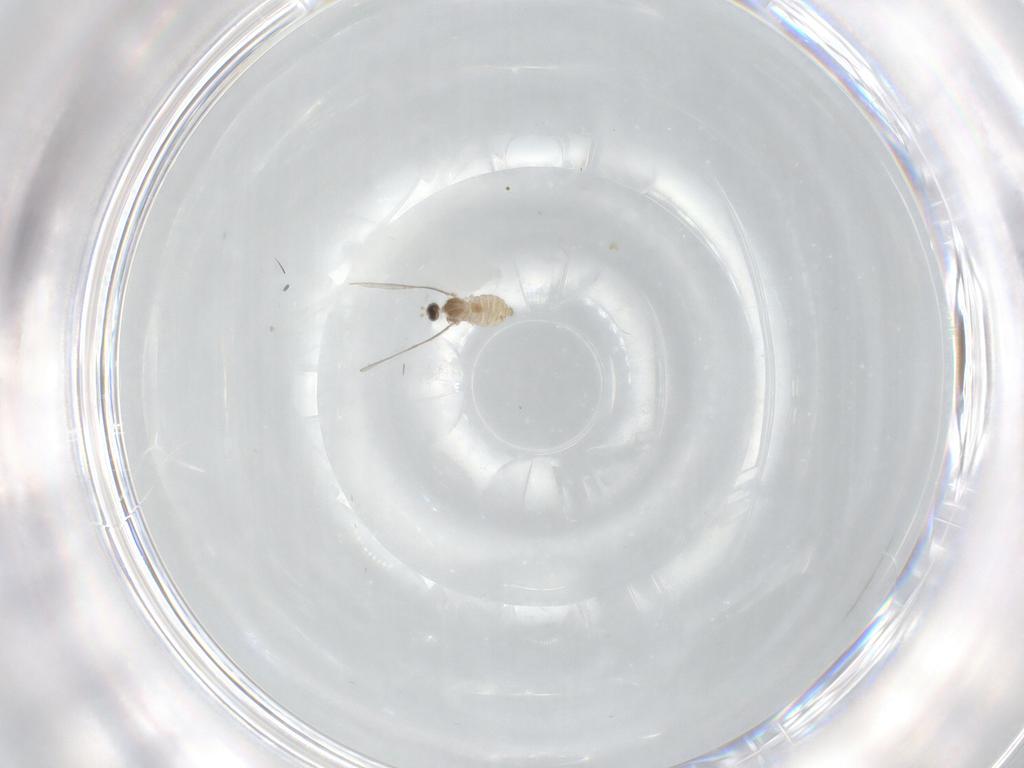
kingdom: Animalia
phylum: Arthropoda
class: Insecta
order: Diptera
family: Cecidomyiidae
